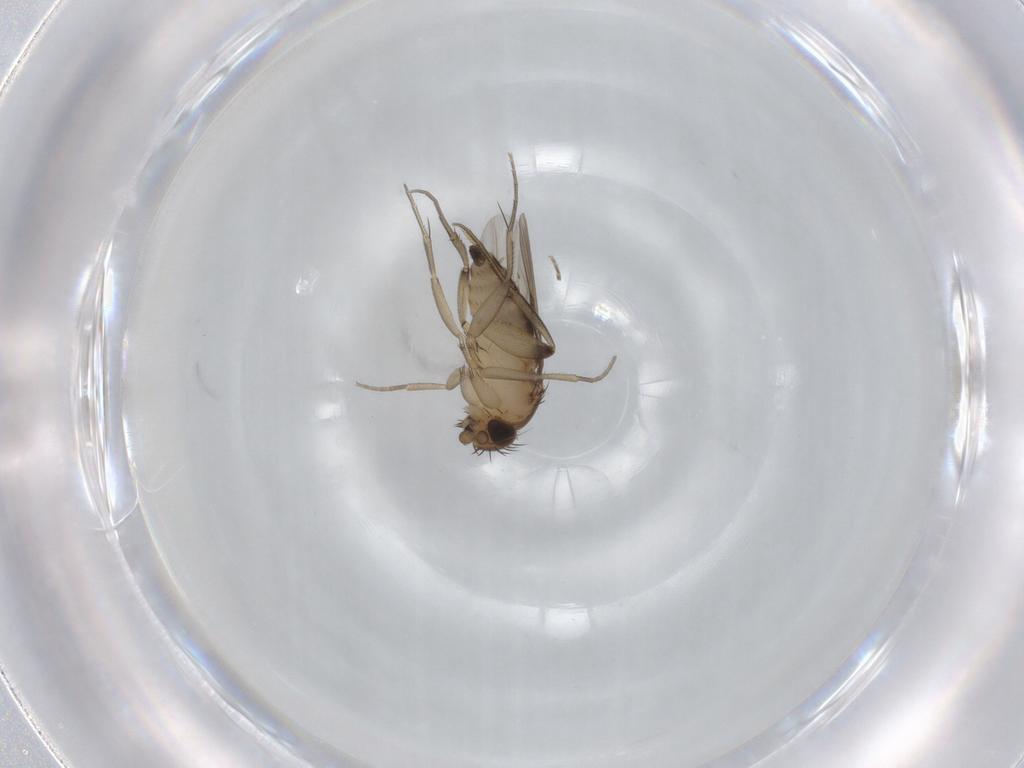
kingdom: Animalia
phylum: Arthropoda
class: Insecta
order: Diptera
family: Phoridae
